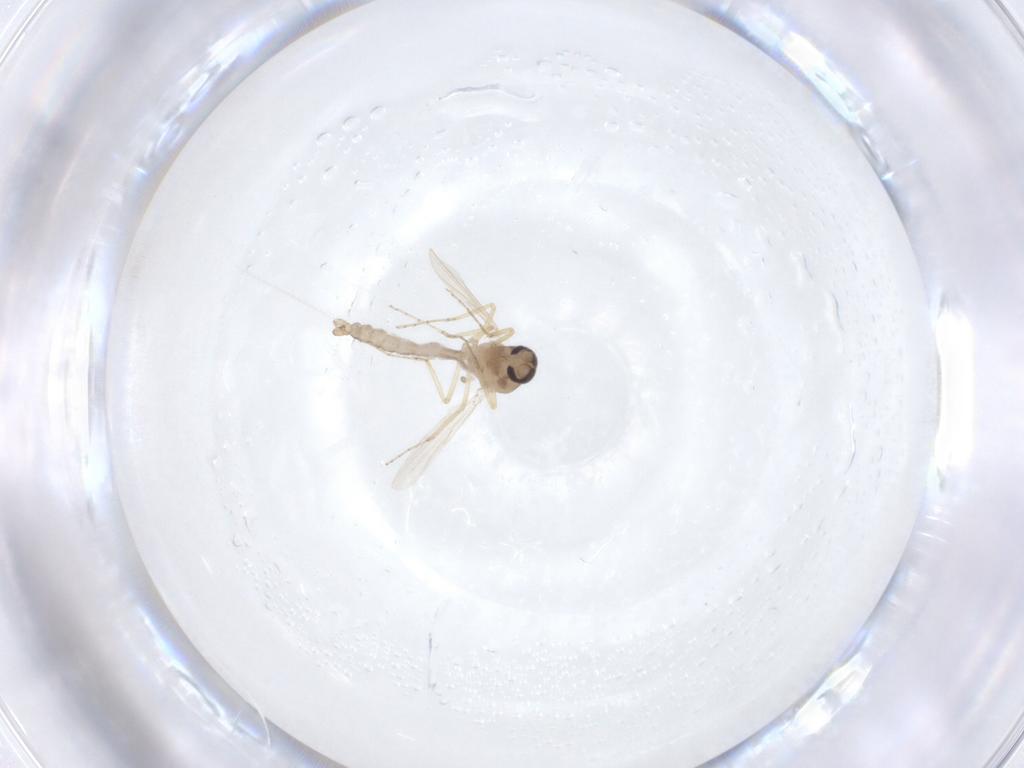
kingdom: Animalia
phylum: Arthropoda
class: Insecta
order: Diptera
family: Ceratopogonidae
